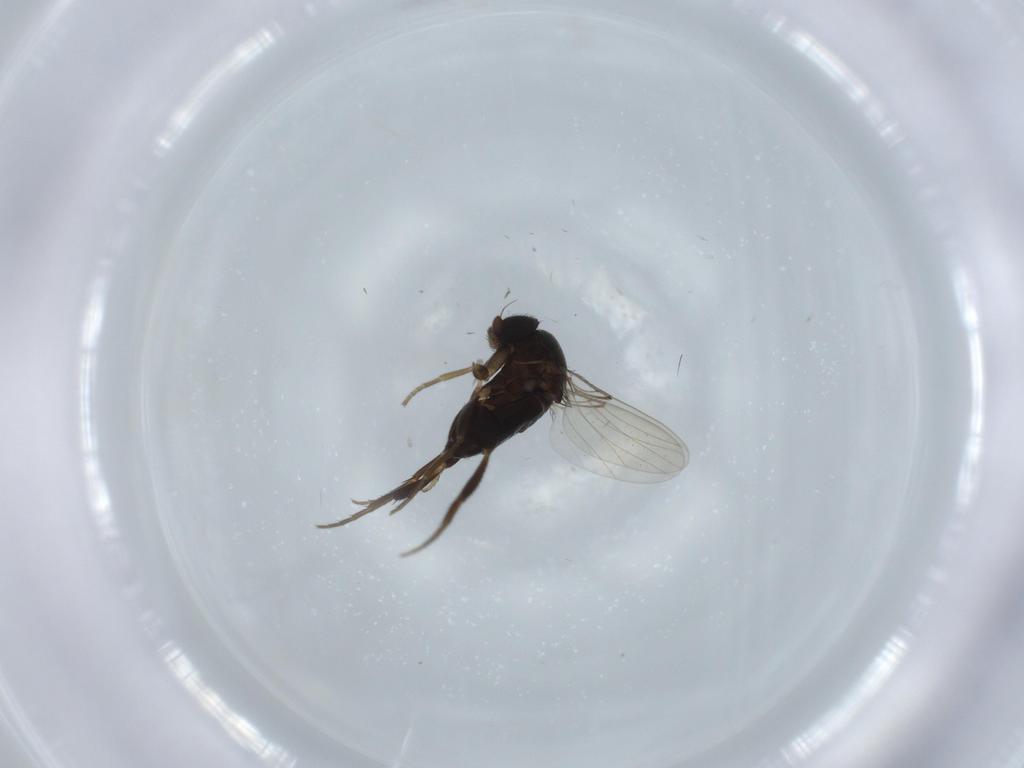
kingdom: Animalia
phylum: Arthropoda
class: Insecta
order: Diptera
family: Phoridae
